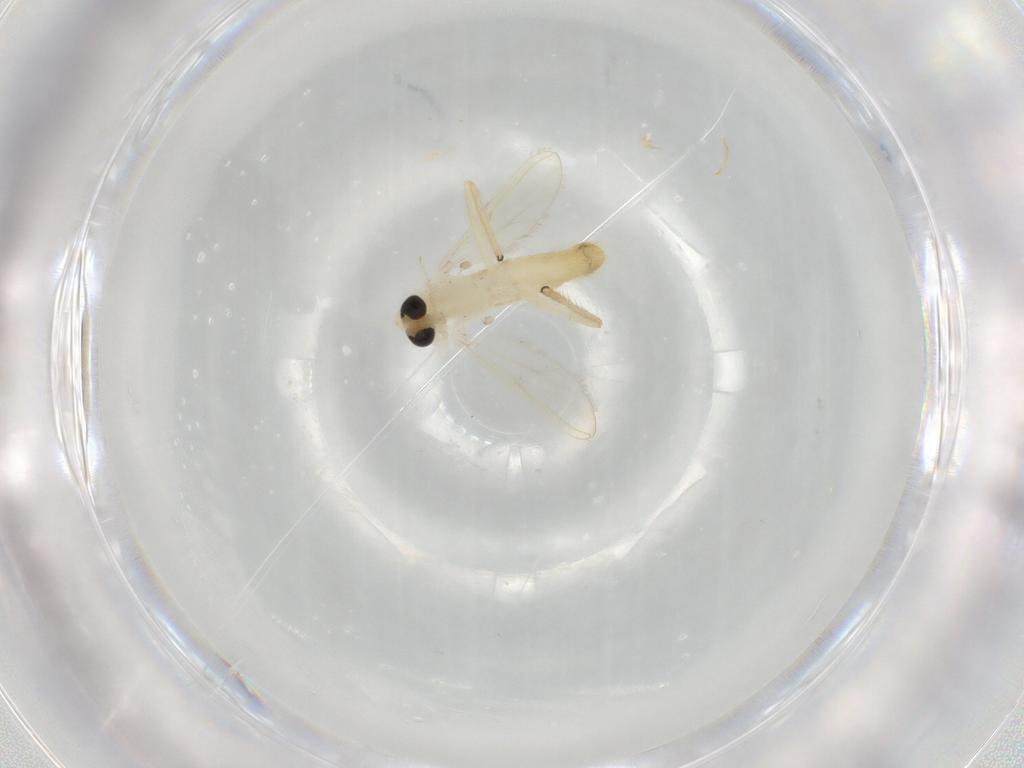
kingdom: Animalia
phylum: Arthropoda
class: Insecta
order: Diptera
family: Chironomidae
